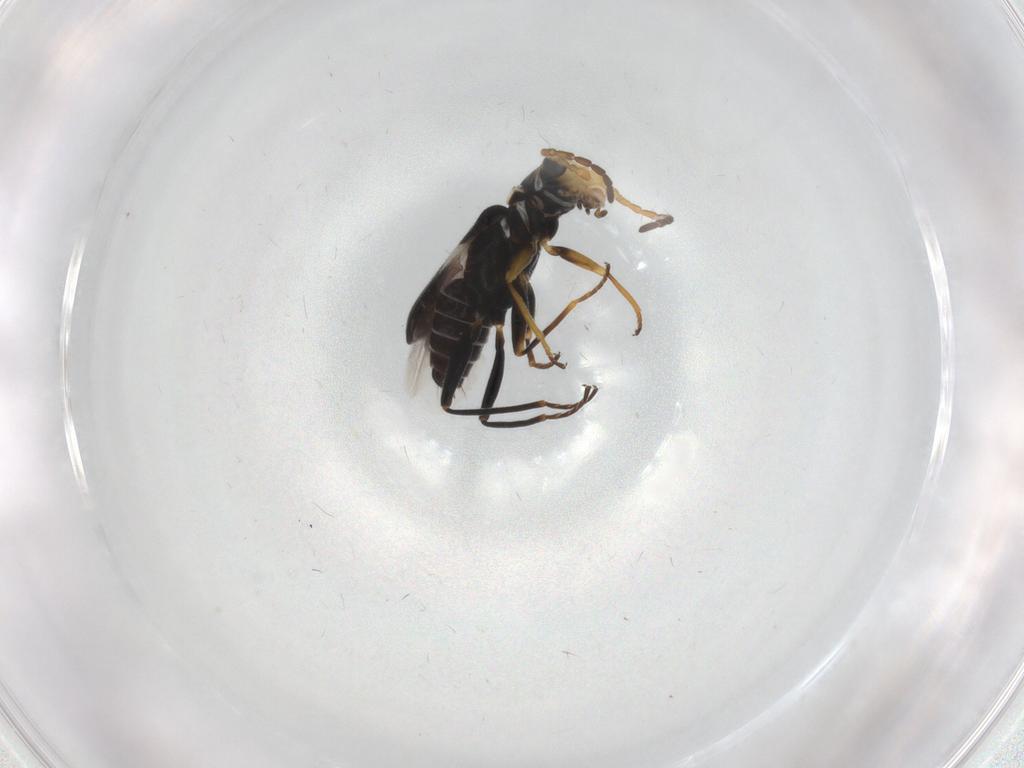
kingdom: Animalia
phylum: Arthropoda
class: Insecta
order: Coleoptera
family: Melyridae
